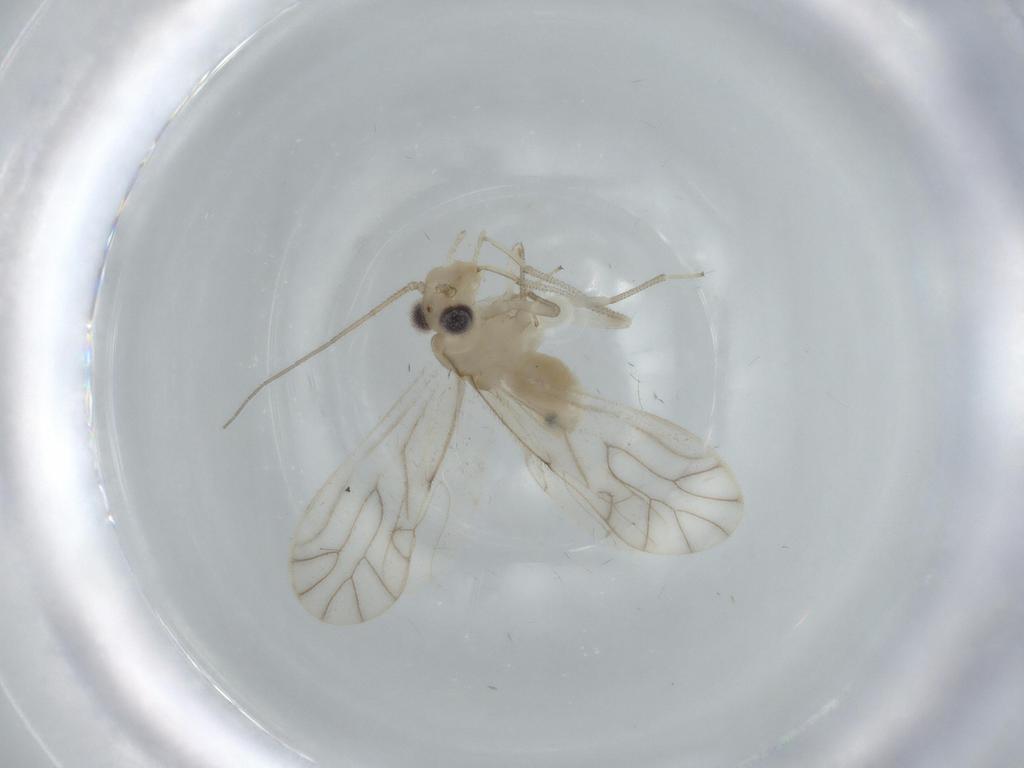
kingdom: Animalia
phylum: Arthropoda
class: Insecta
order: Psocodea
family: Caeciliusidae
